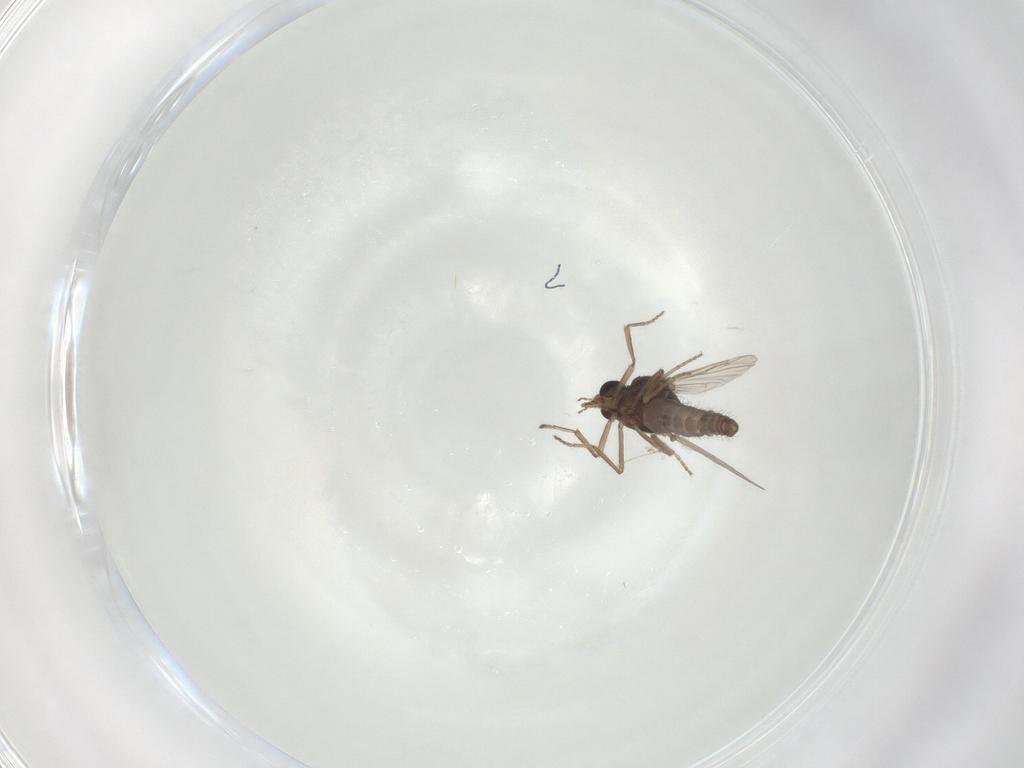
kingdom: Animalia
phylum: Arthropoda
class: Insecta
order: Diptera
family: Ceratopogonidae
